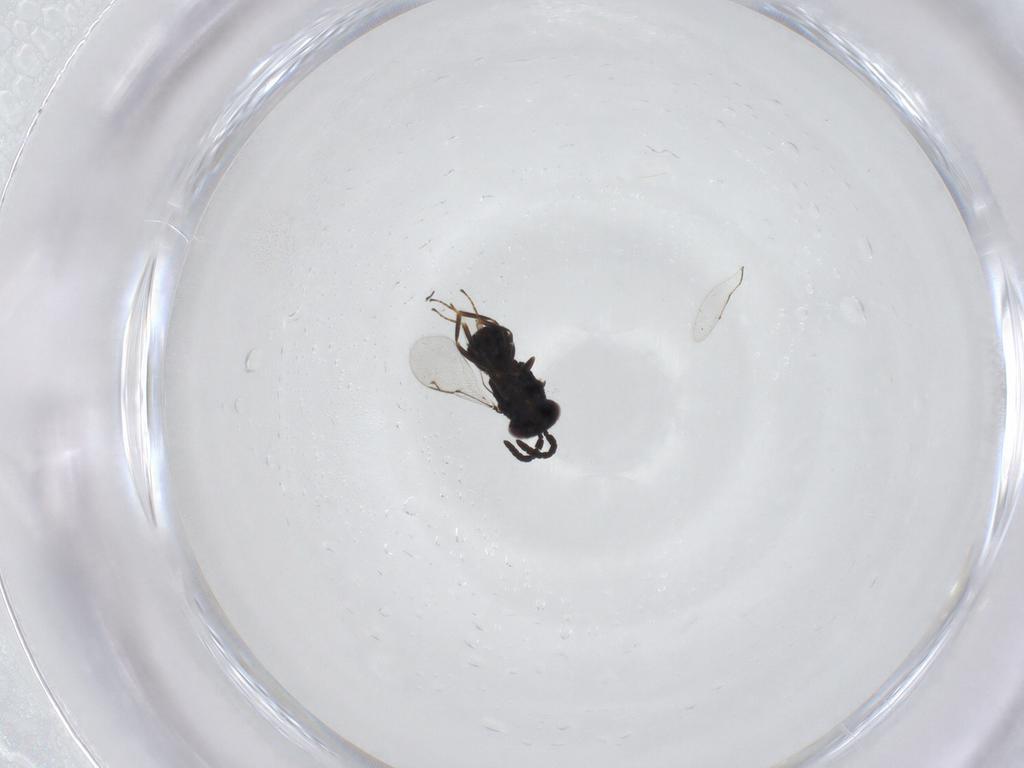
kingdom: Animalia
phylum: Arthropoda
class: Insecta
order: Hymenoptera
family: Eunotidae
